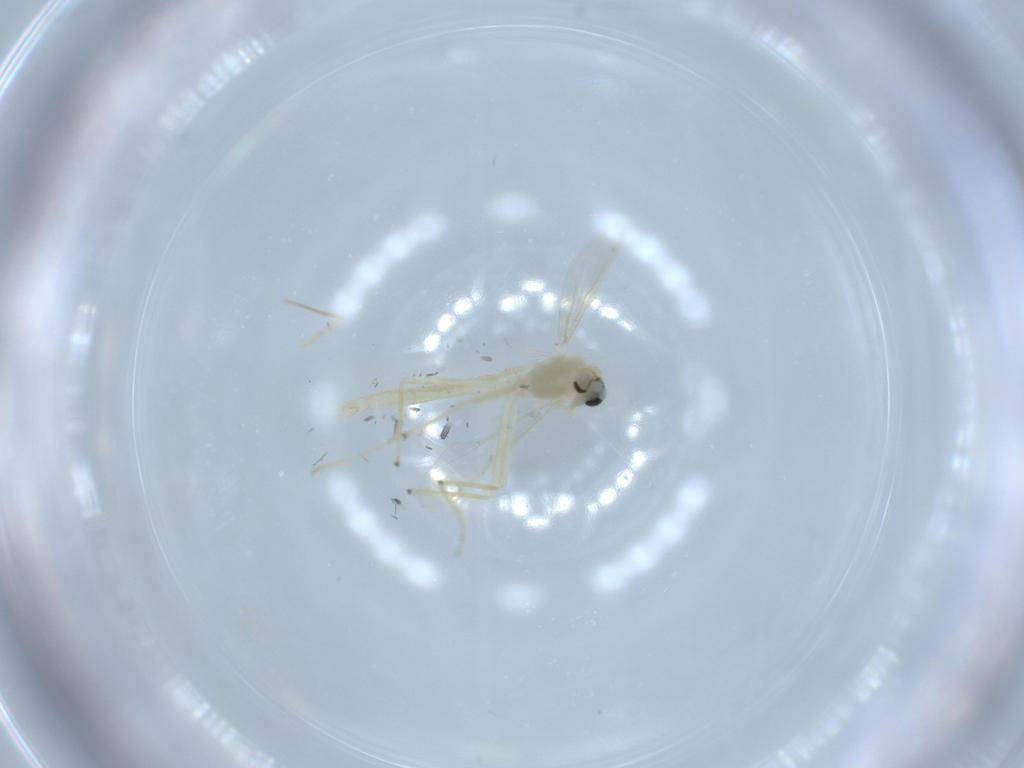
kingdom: Animalia
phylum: Arthropoda
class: Insecta
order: Diptera
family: Chironomidae
